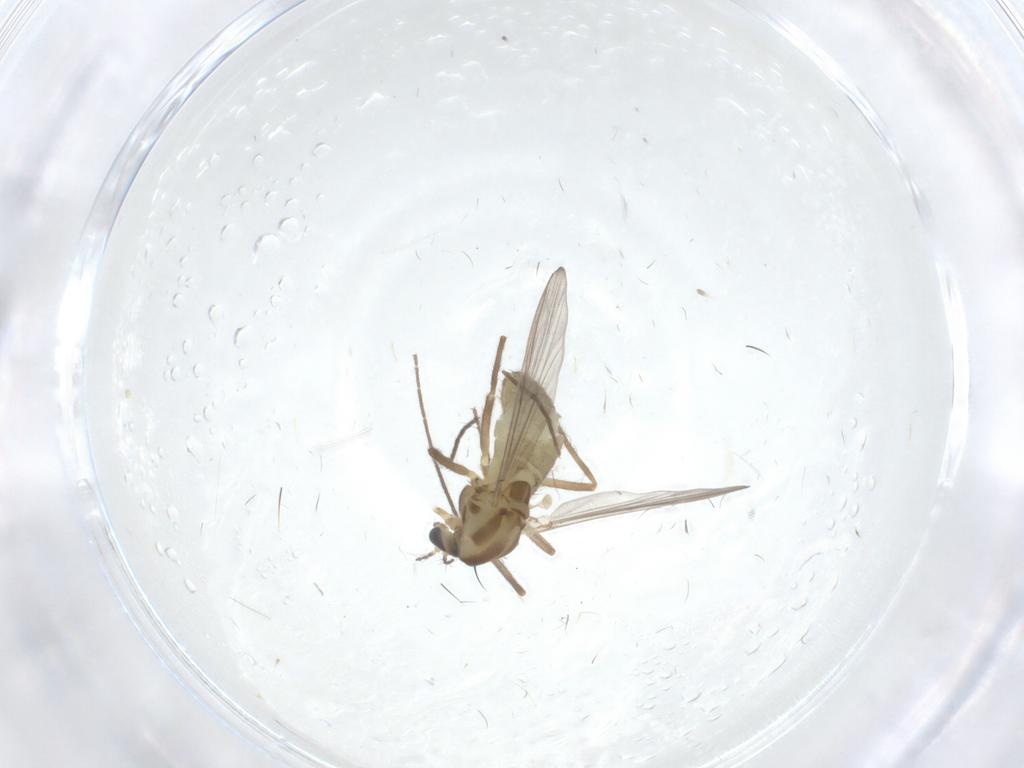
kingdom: Animalia
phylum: Arthropoda
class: Insecta
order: Diptera
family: Chironomidae
